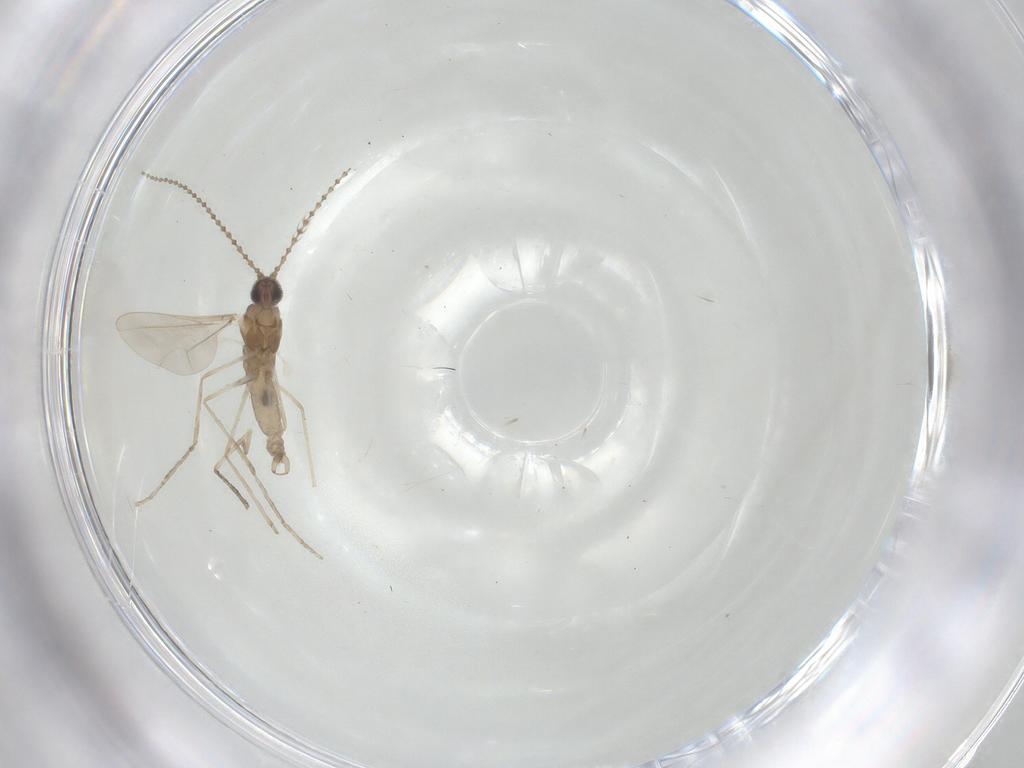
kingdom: Animalia
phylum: Arthropoda
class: Insecta
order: Diptera
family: Cecidomyiidae
